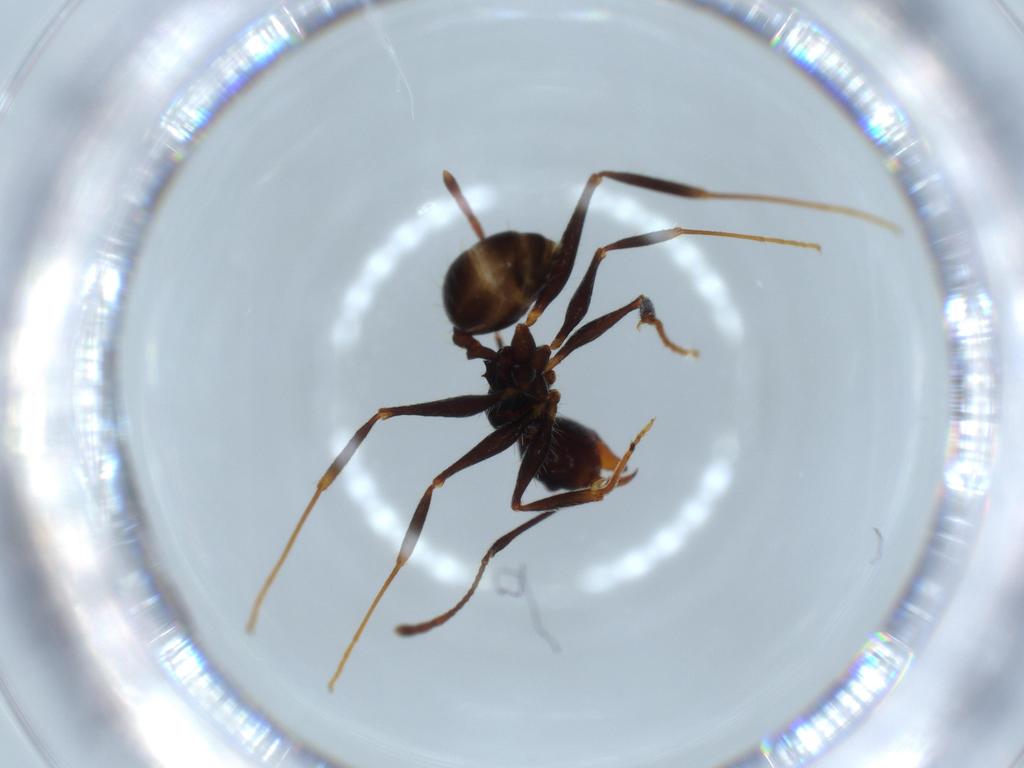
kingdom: Animalia
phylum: Arthropoda
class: Insecta
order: Hymenoptera
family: Formicidae
